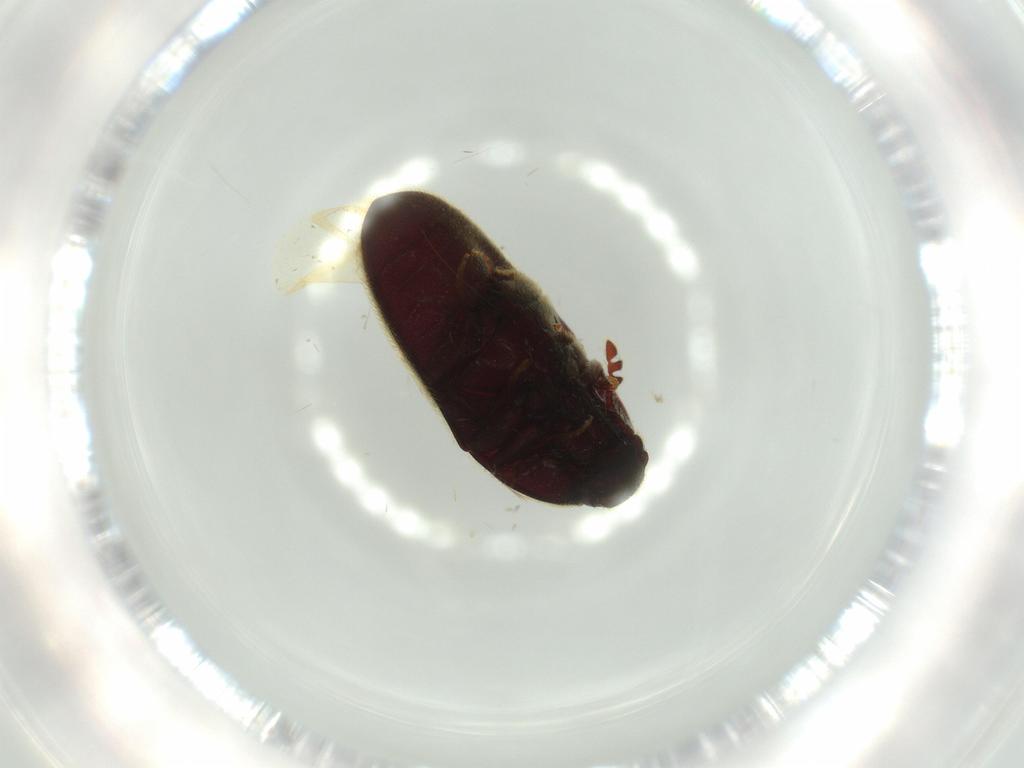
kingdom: Animalia
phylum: Arthropoda
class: Insecta
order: Coleoptera
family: Throscidae
